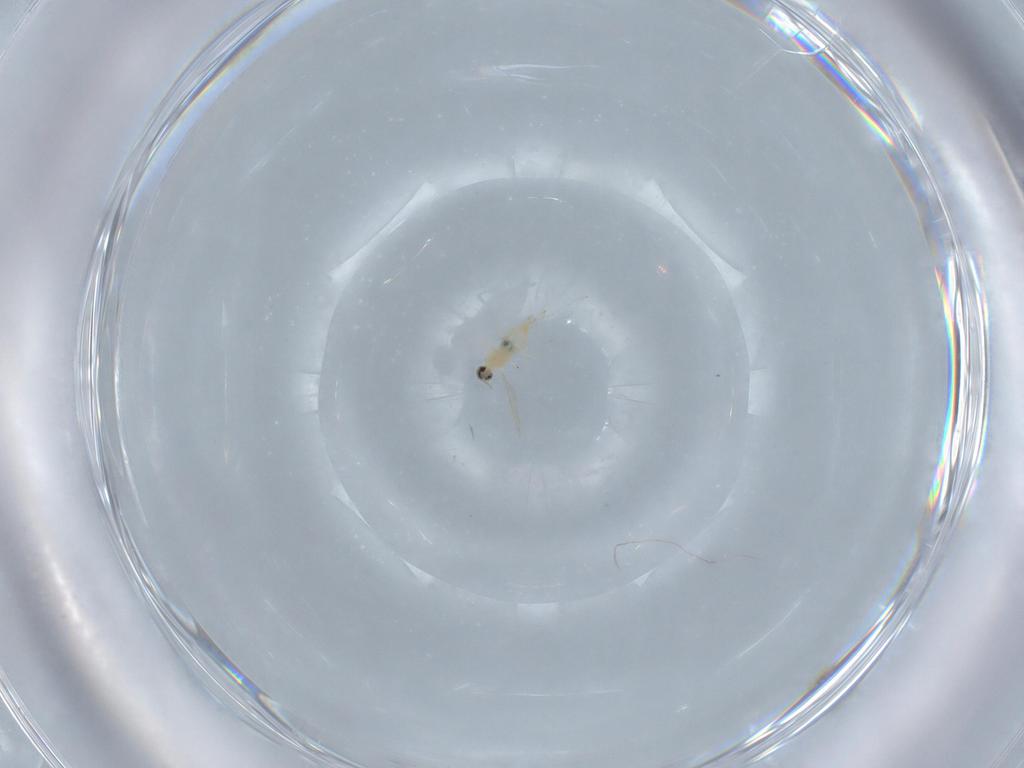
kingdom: Animalia
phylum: Arthropoda
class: Insecta
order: Diptera
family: Cecidomyiidae
